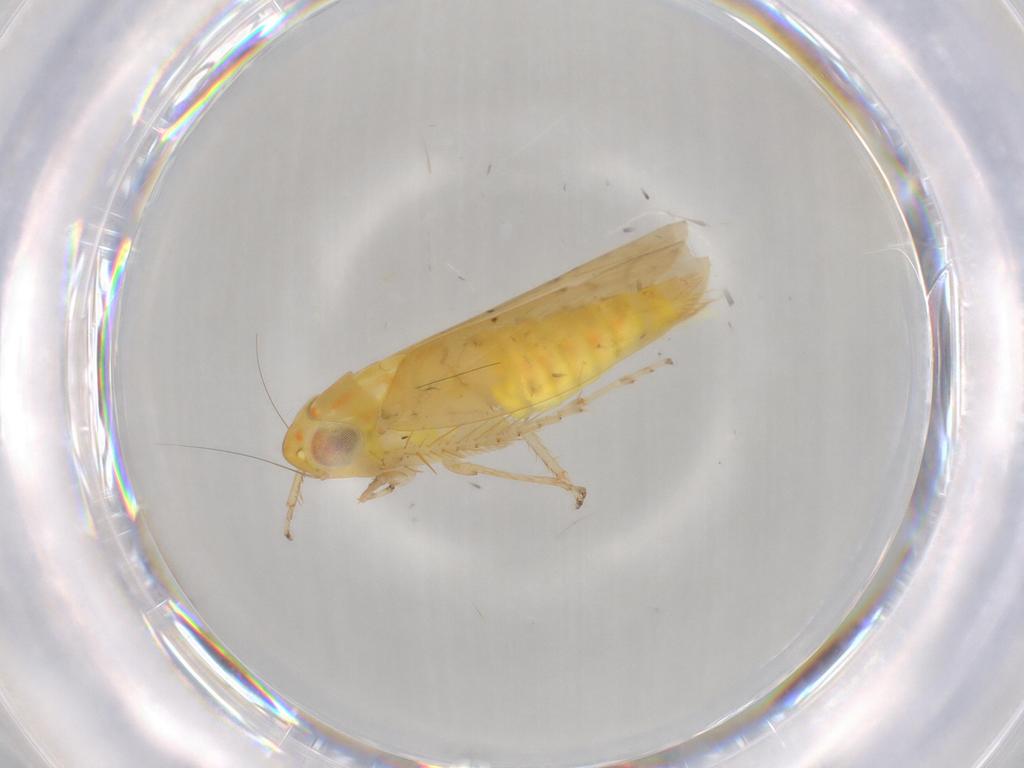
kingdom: Animalia
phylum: Arthropoda
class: Insecta
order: Hemiptera
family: Cicadellidae
